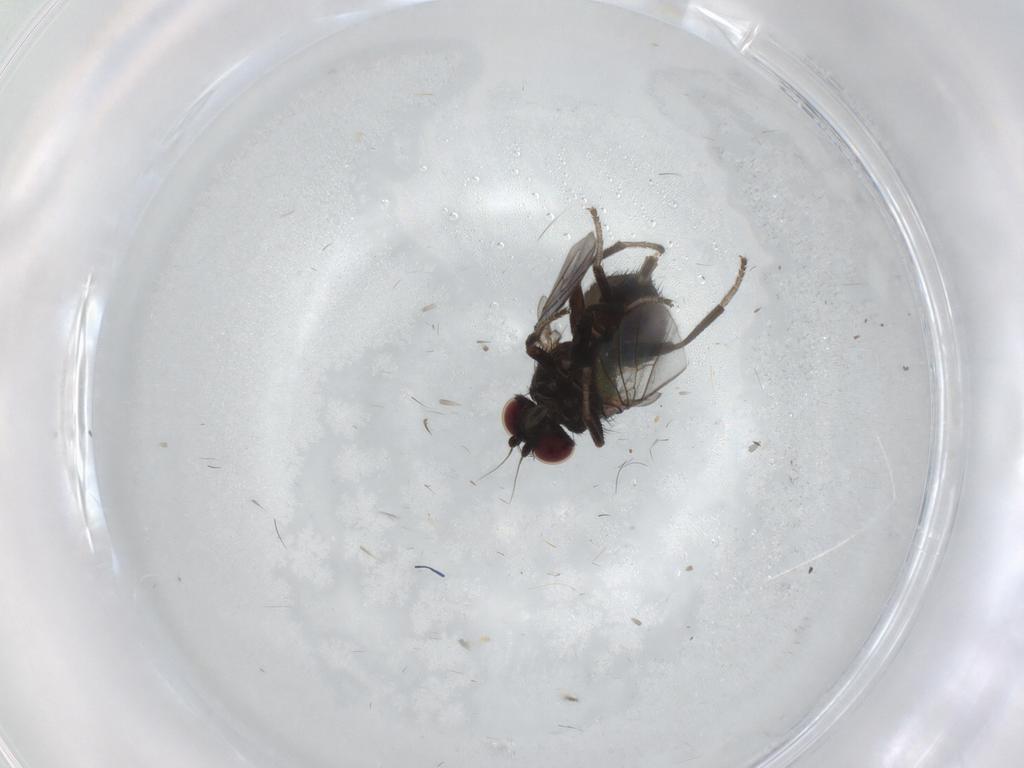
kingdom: Animalia
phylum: Arthropoda
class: Insecta
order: Diptera
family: Agromyzidae
